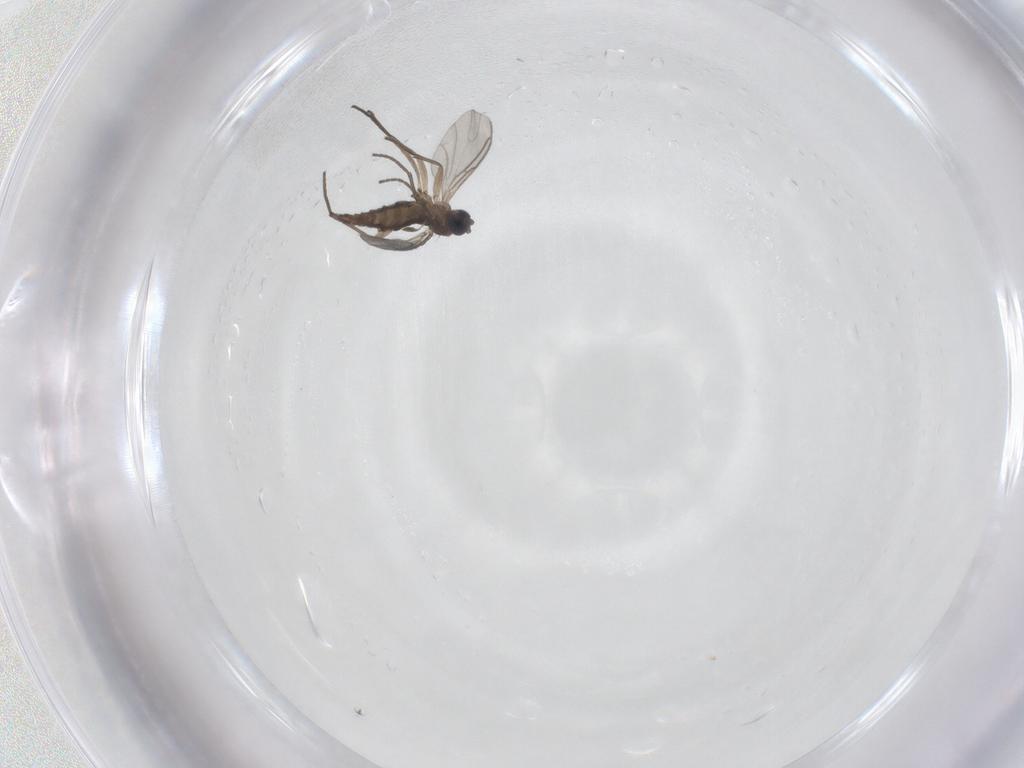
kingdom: Animalia
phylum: Arthropoda
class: Insecta
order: Diptera
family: Sciaridae
